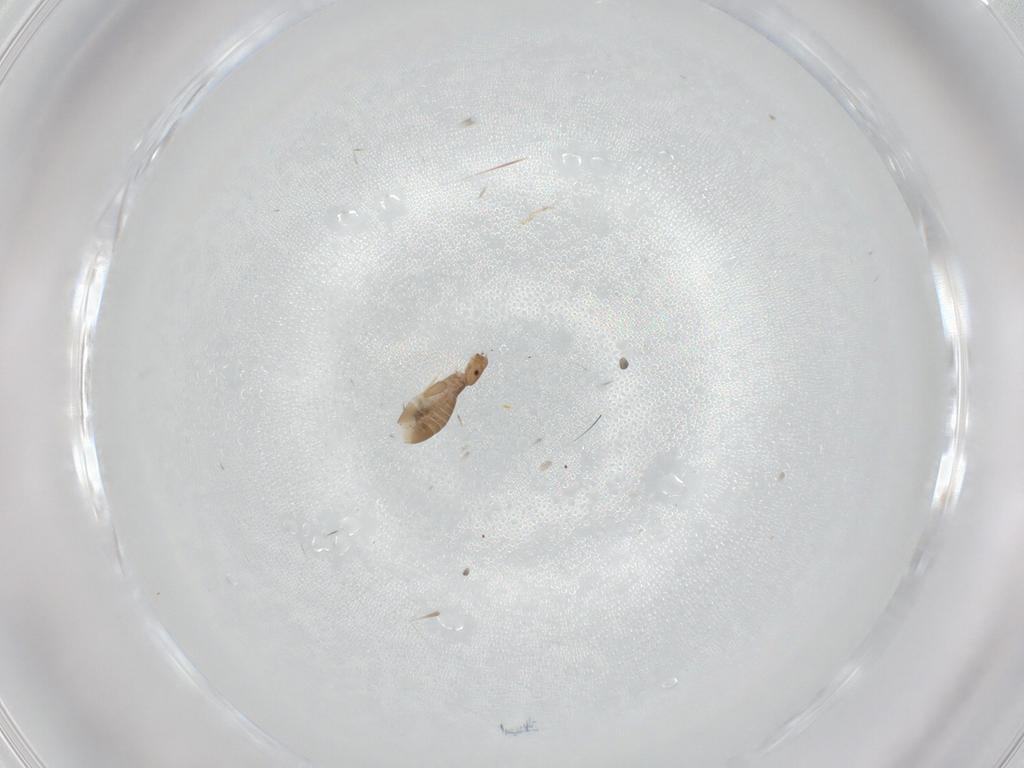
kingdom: Animalia
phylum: Arthropoda
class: Insecta
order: Psocodea
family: Liposcelididae
